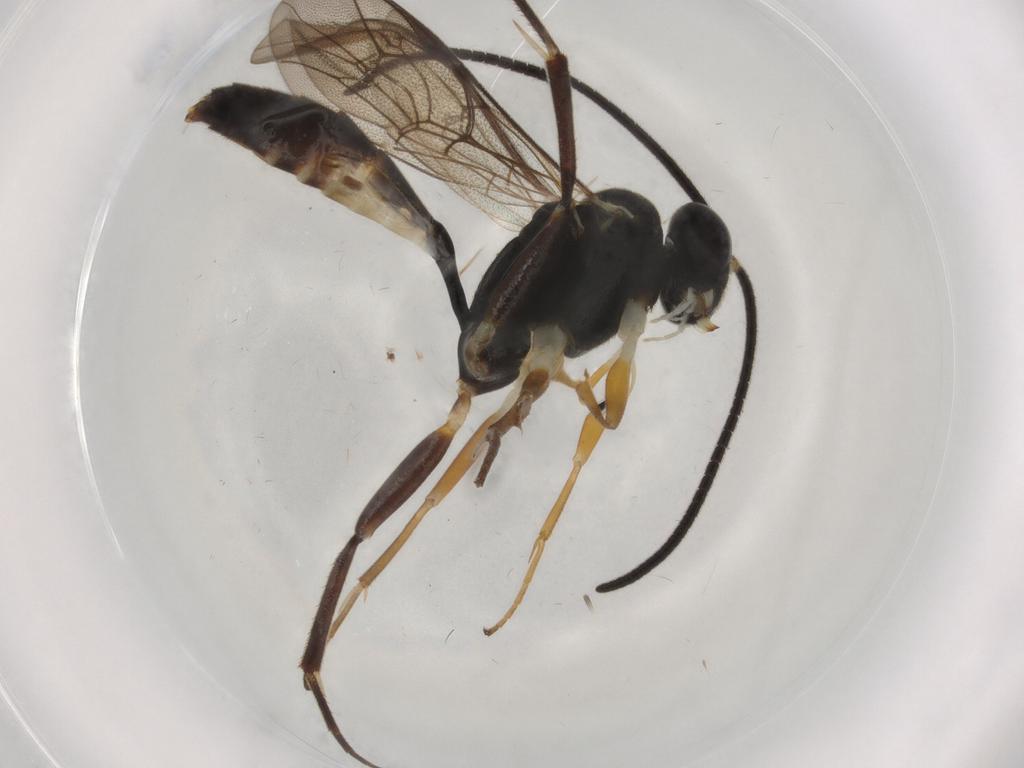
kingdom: Animalia
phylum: Arthropoda
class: Insecta
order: Hymenoptera
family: Ichneumonidae
